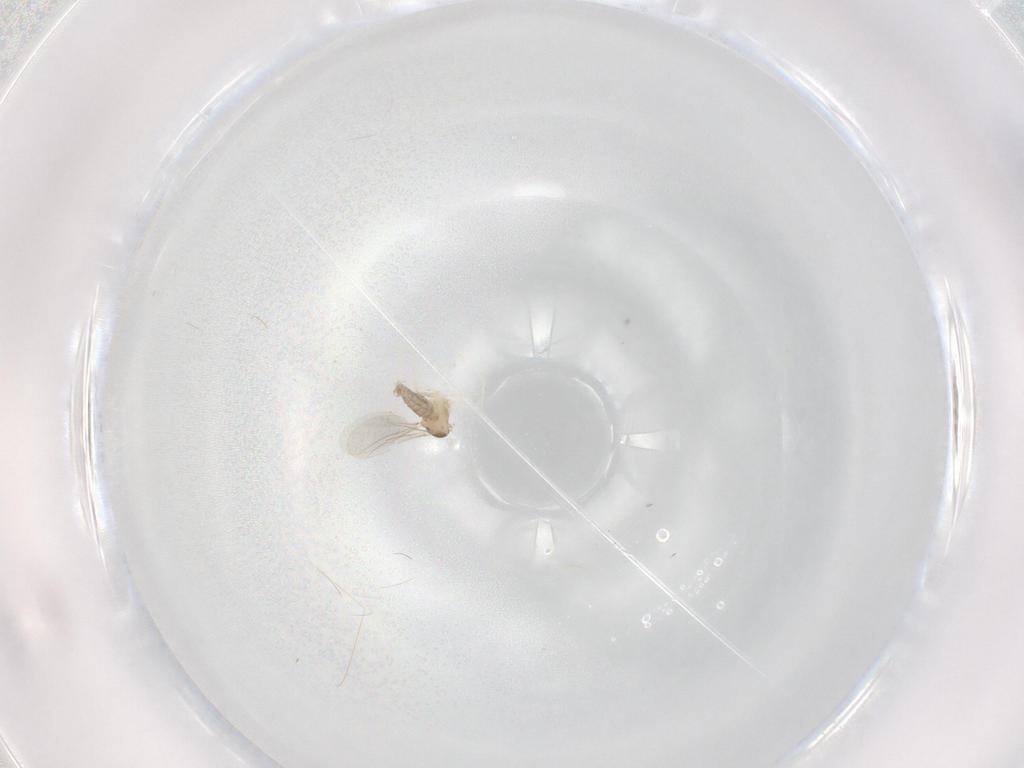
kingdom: Animalia
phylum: Arthropoda
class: Insecta
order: Diptera
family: Cecidomyiidae
